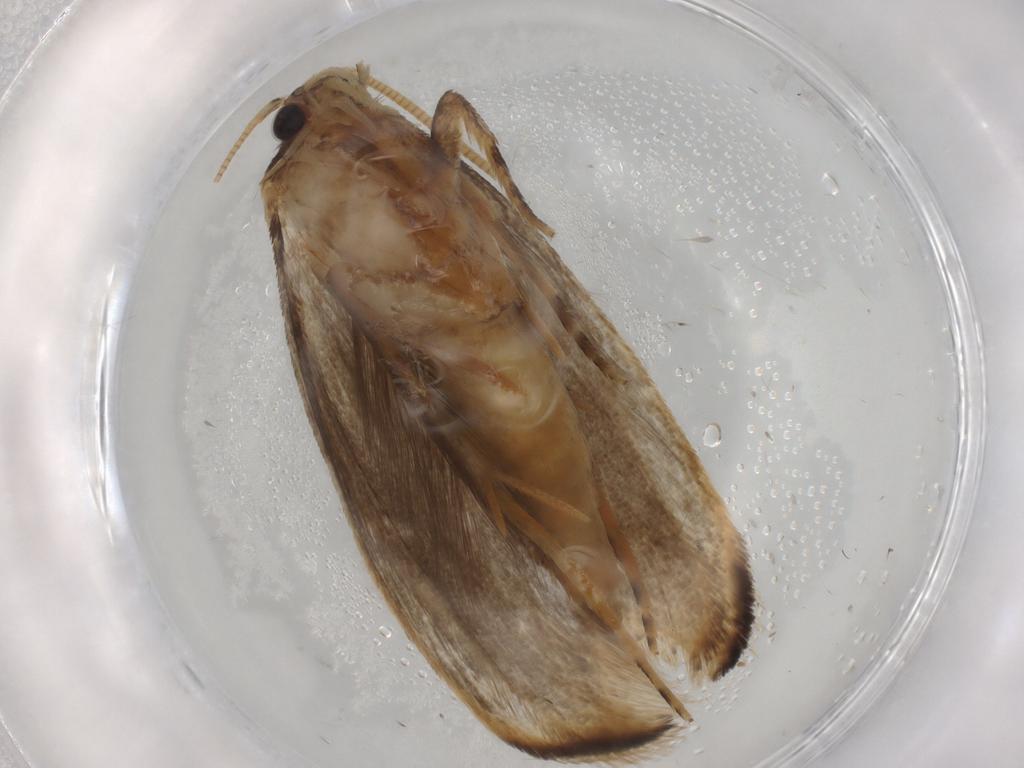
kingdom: Animalia
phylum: Arthropoda
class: Insecta
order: Lepidoptera
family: Tineidae
